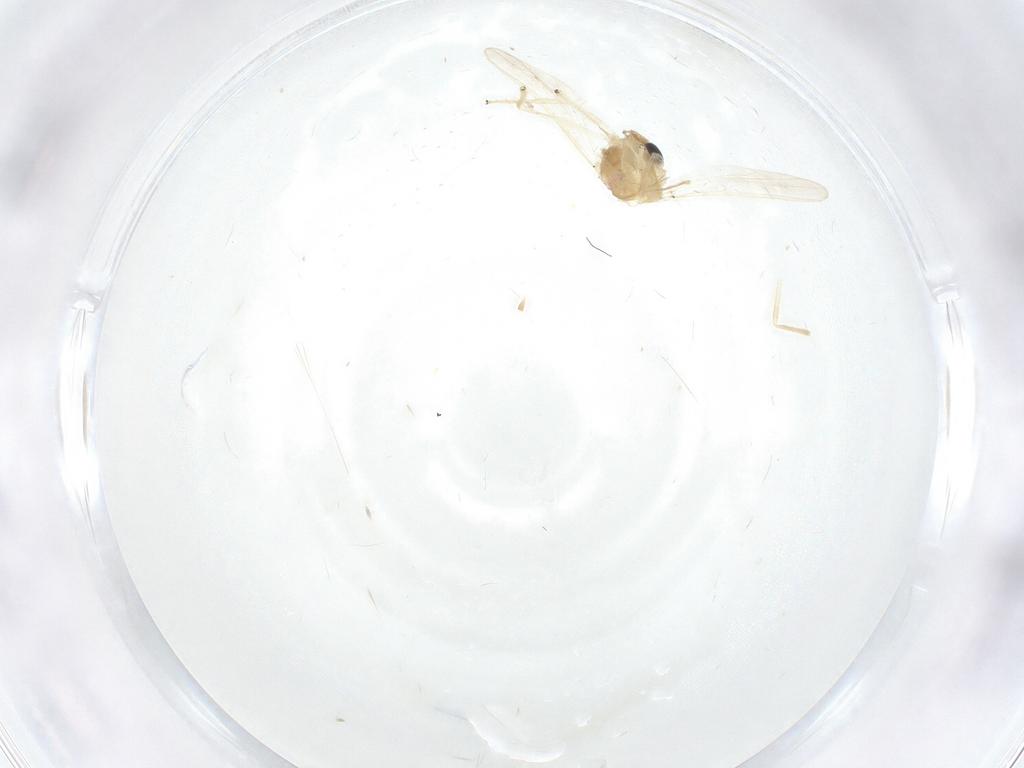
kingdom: Animalia
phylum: Arthropoda
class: Insecta
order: Diptera
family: Chironomidae
